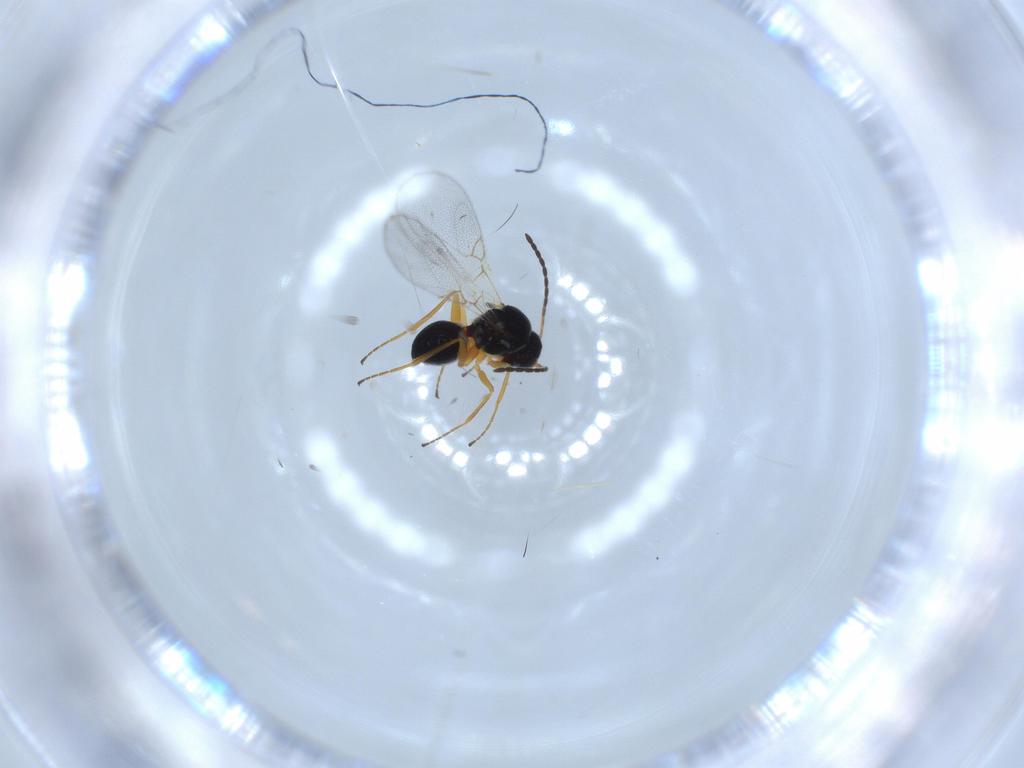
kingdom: Animalia
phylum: Arthropoda
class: Insecta
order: Hymenoptera
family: Figitidae
